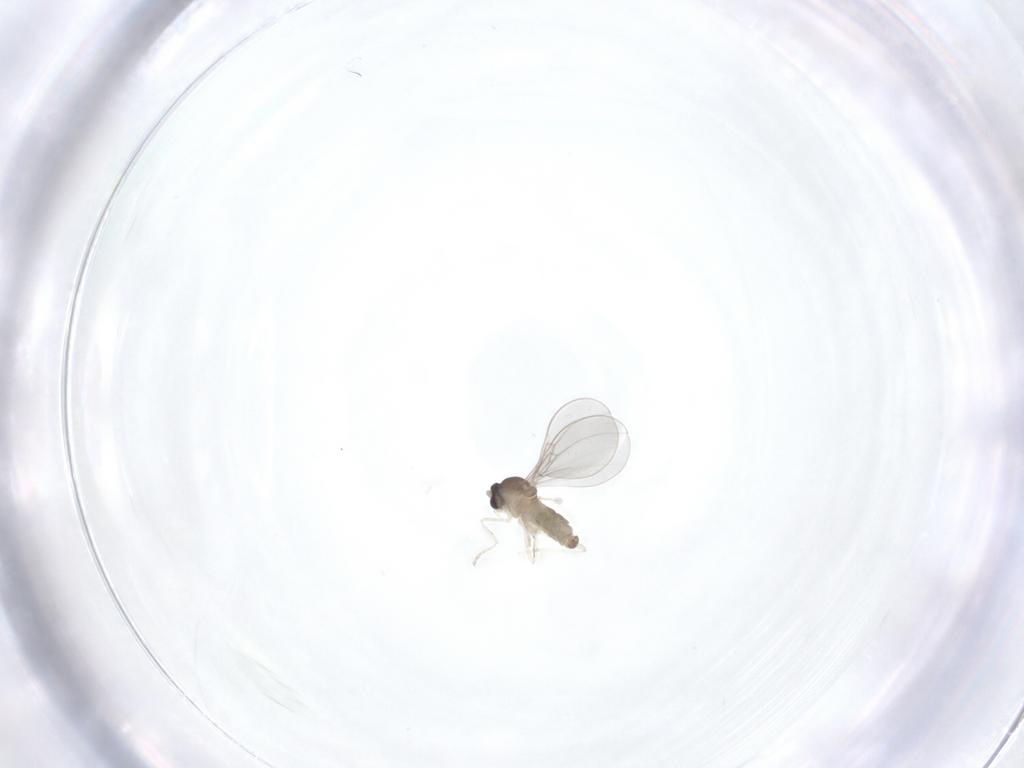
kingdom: Animalia
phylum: Arthropoda
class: Insecta
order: Diptera
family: Cecidomyiidae
